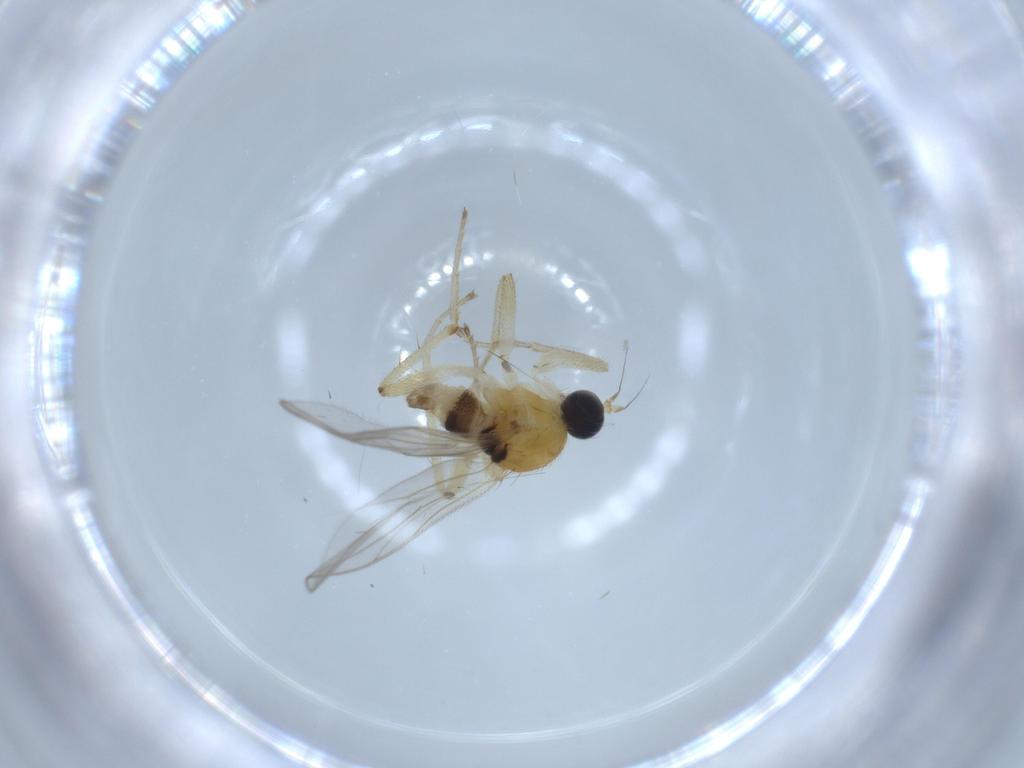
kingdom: Animalia
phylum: Arthropoda
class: Insecta
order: Diptera
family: Hybotidae
